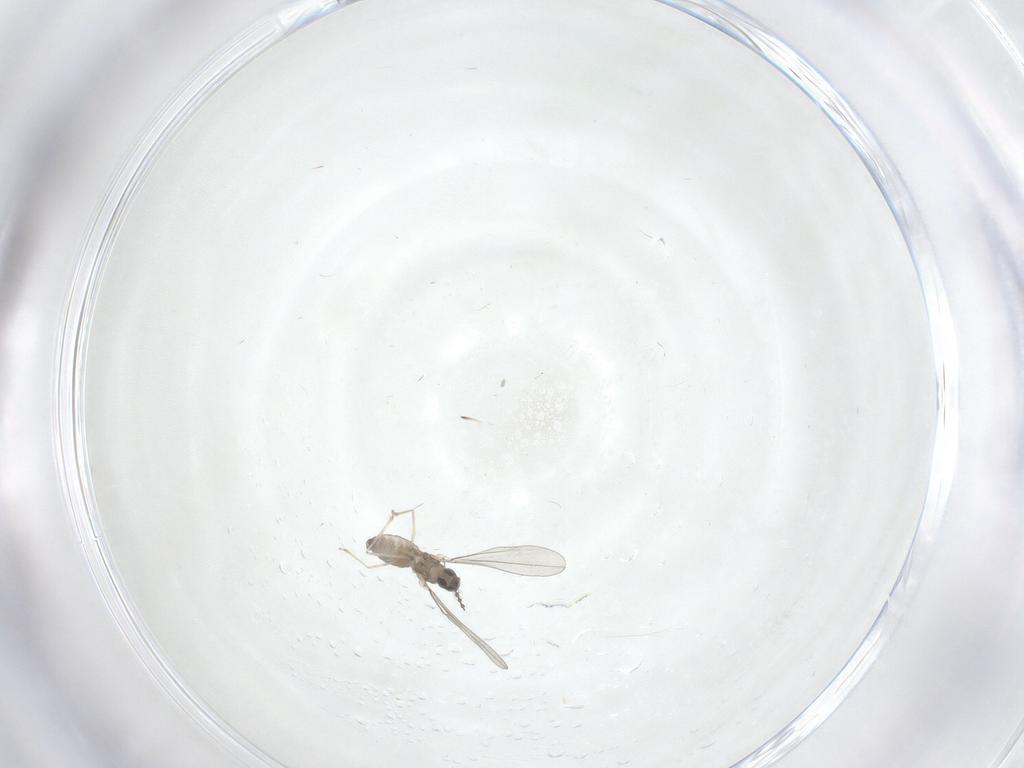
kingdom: Animalia
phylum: Arthropoda
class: Insecta
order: Diptera
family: Cecidomyiidae
